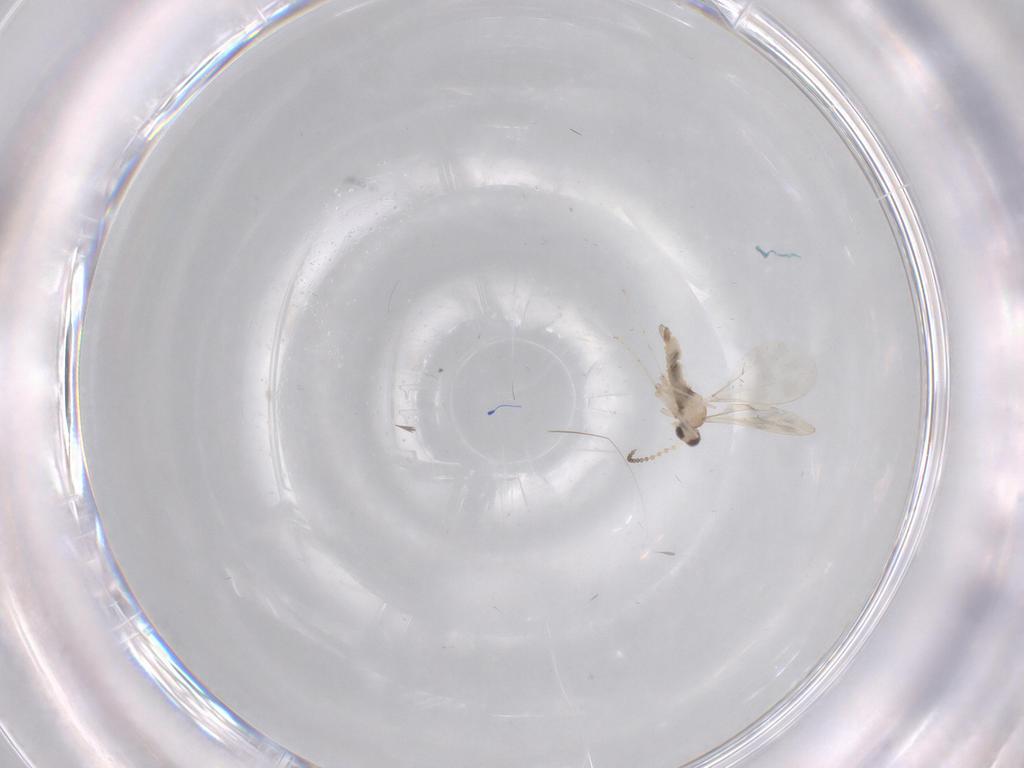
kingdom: Animalia
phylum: Arthropoda
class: Insecta
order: Diptera
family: Cecidomyiidae
